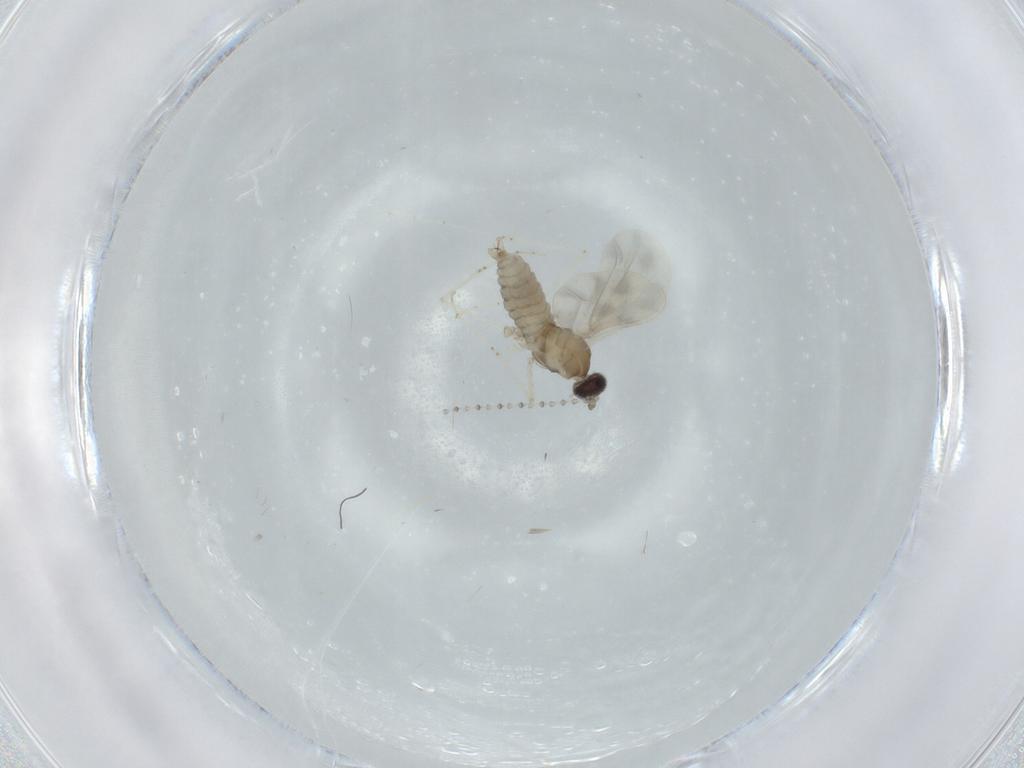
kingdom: Animalia
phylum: Arthropoda
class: Insecta
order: Diptera
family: Cecidomyiidae
